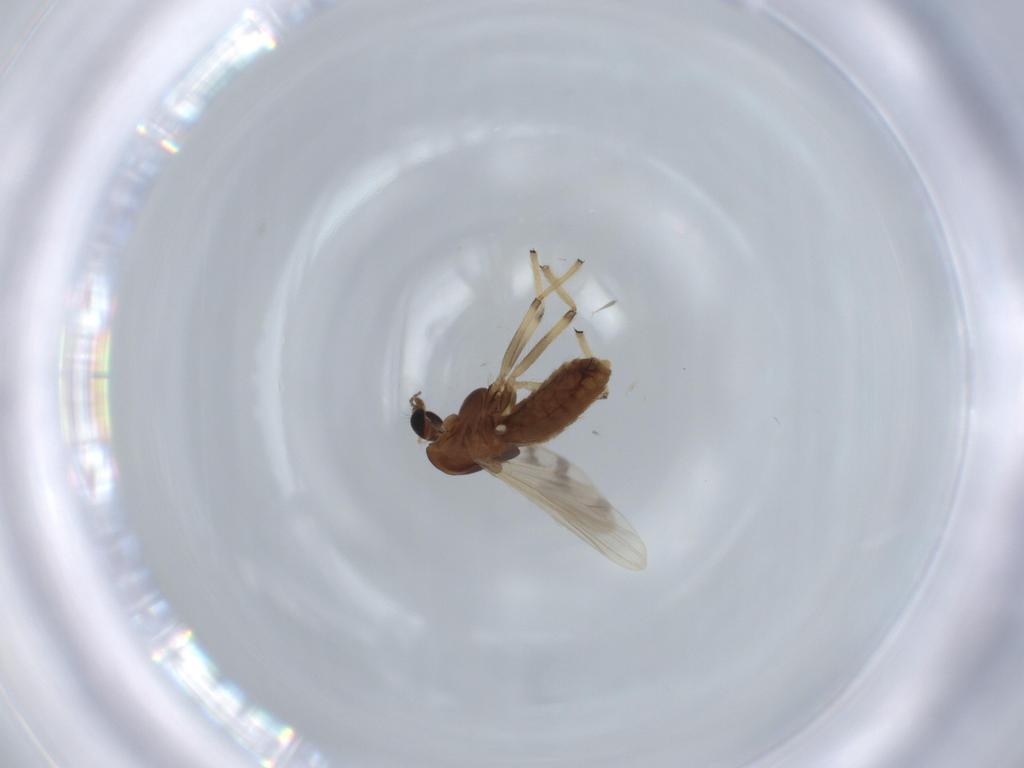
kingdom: Animalia
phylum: Arthropoda
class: Insecta
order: Diptera
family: Chironomidae
